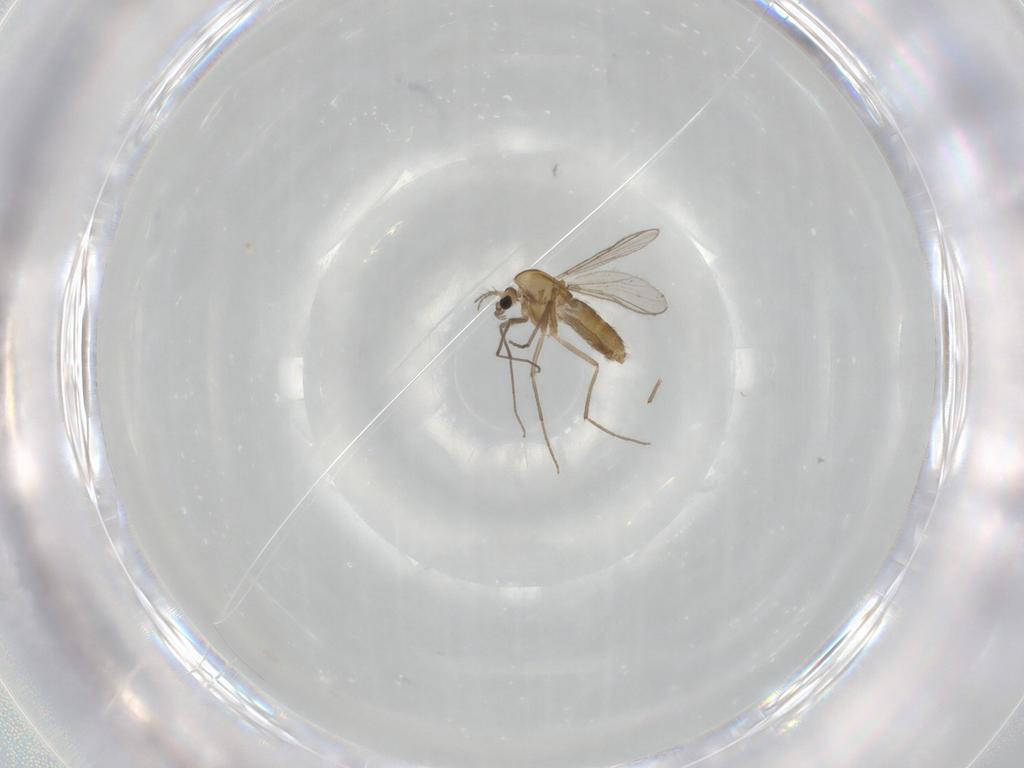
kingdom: Animalia
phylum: Arthropoda
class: Insecta
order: Diptera
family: Chironomidae
